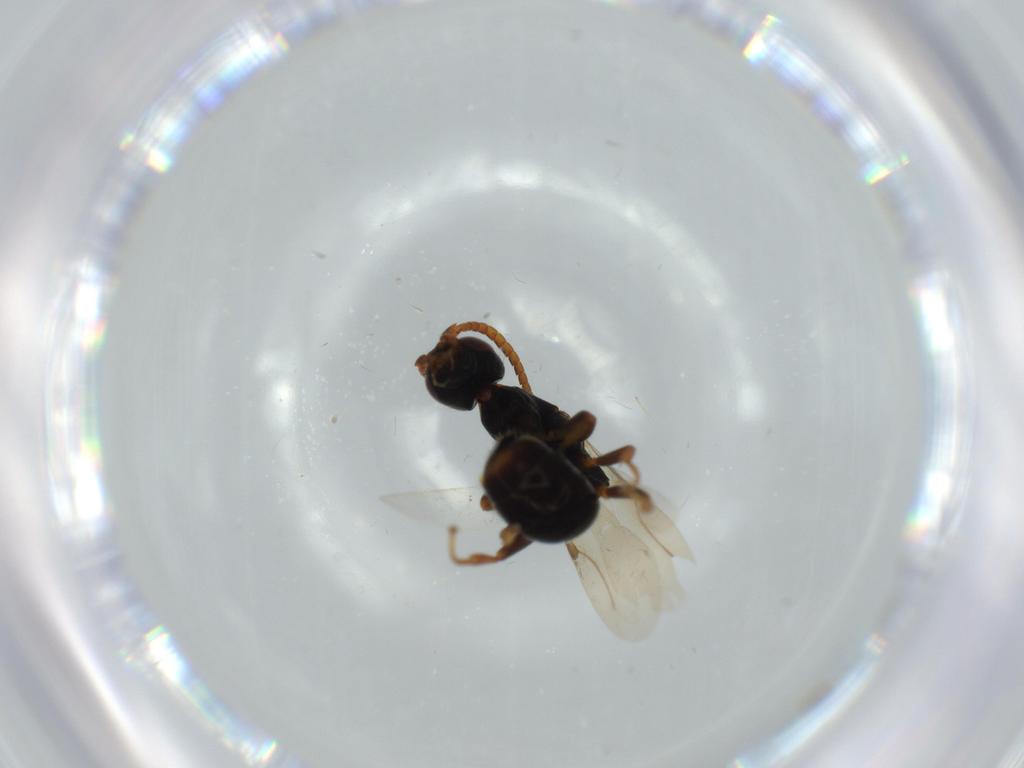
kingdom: Animalia
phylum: Arthropoda
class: Insecta
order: Hymenoptera
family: Bethylidae
